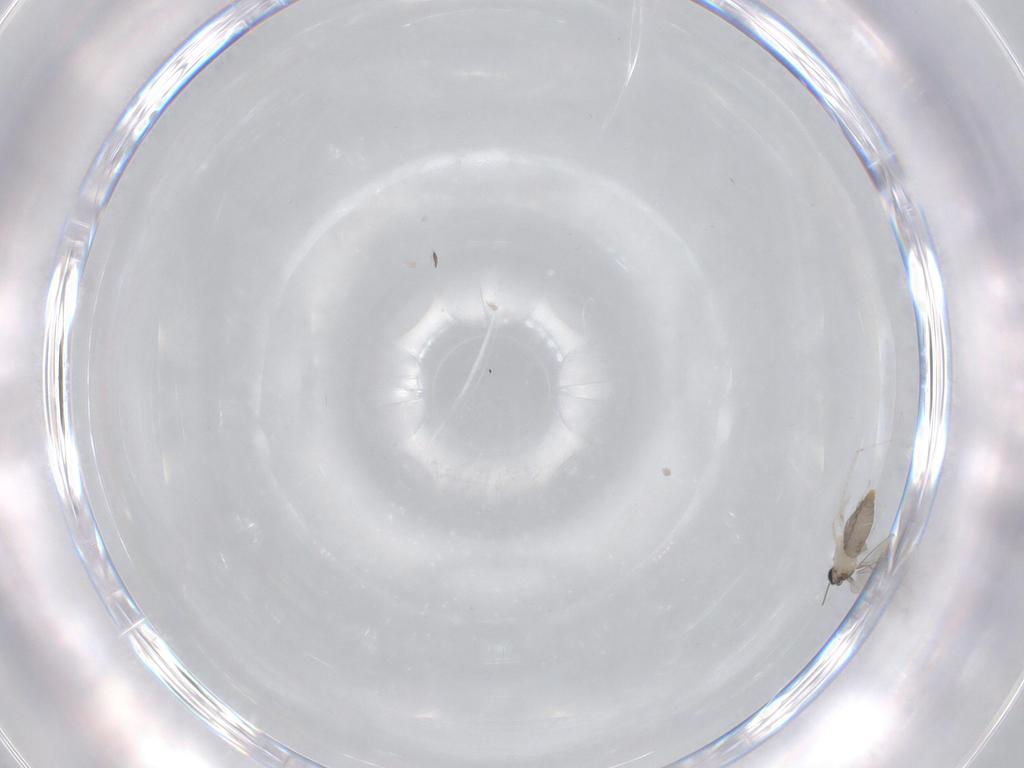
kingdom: Animalia
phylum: Arthropoda
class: Insecta
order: Diptera
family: Cecidomyiidae
